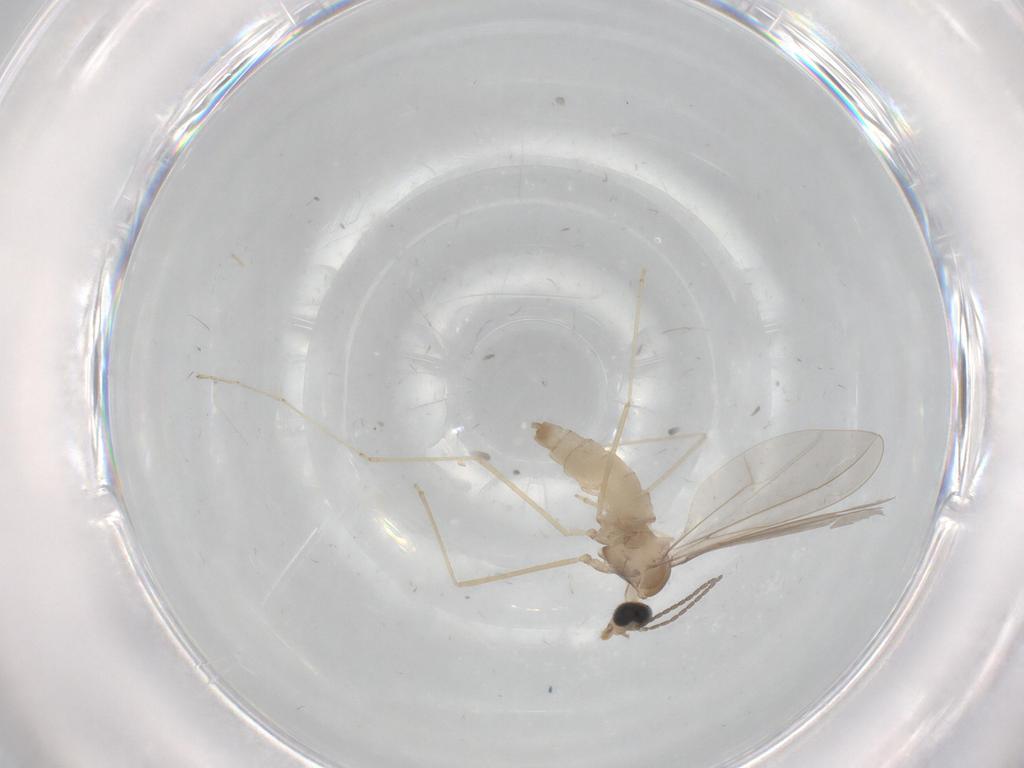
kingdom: Animalia
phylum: Arthropoda
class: Insecta
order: Diptera
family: Cecidomyiidae
